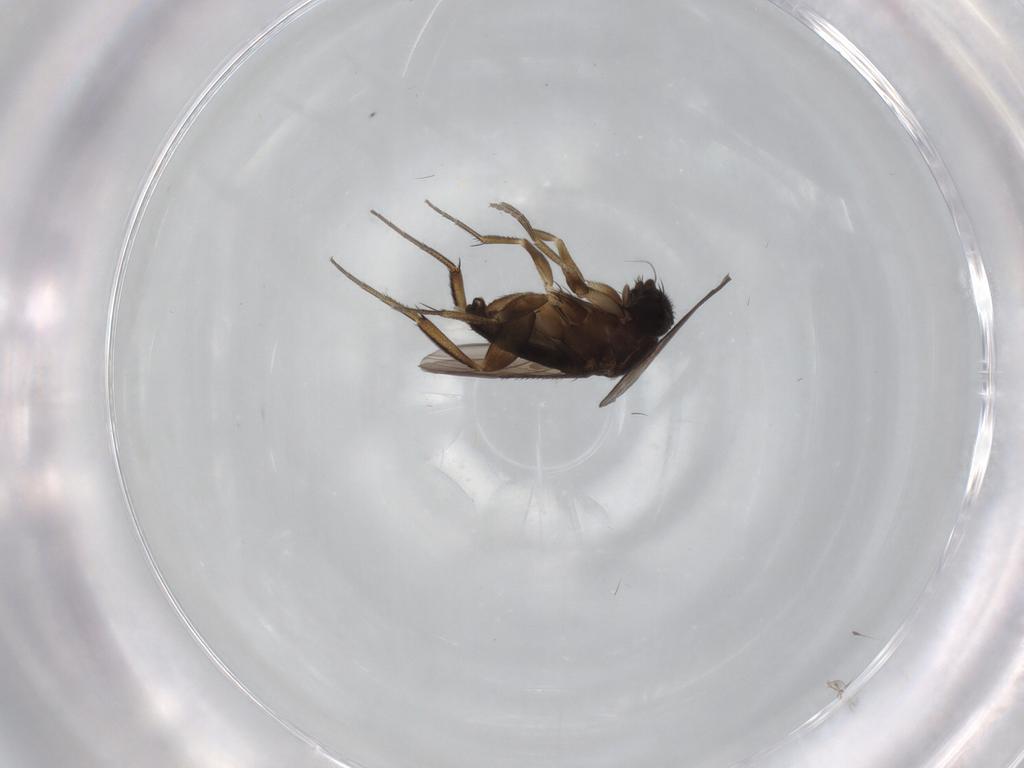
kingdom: Animalia
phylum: Arthropoda
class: Insecta
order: Diptera
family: Phoridae
